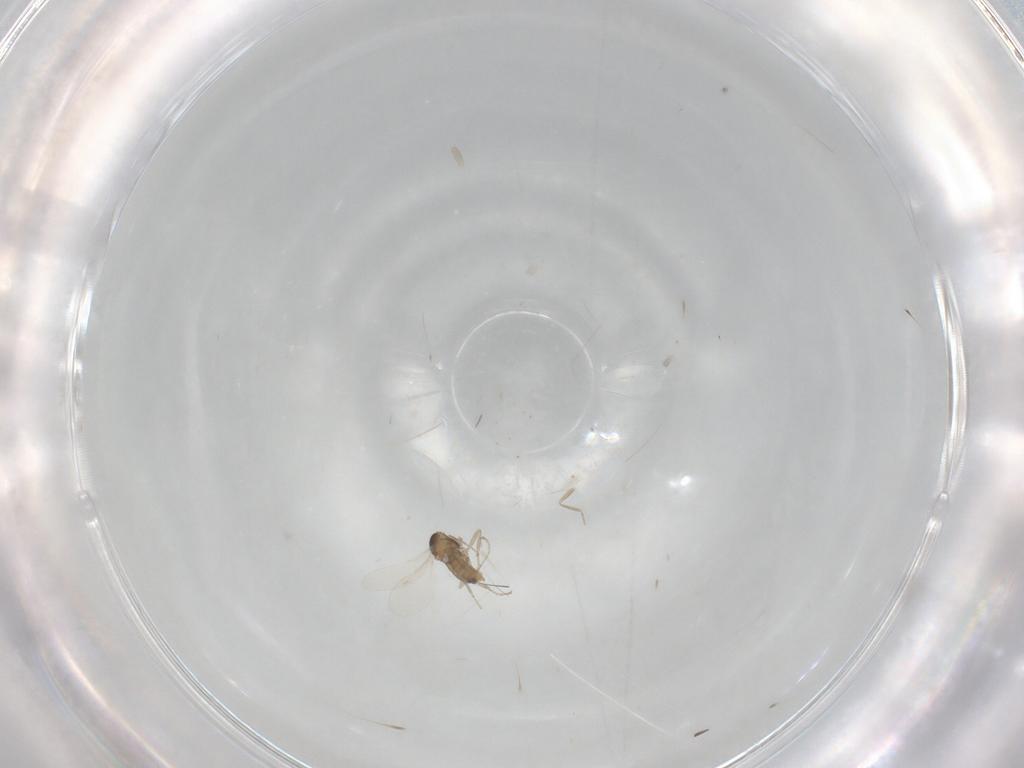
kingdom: Animalia
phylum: Arthropoda
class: Insecta
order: Diptera
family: Cecidomyiidae
